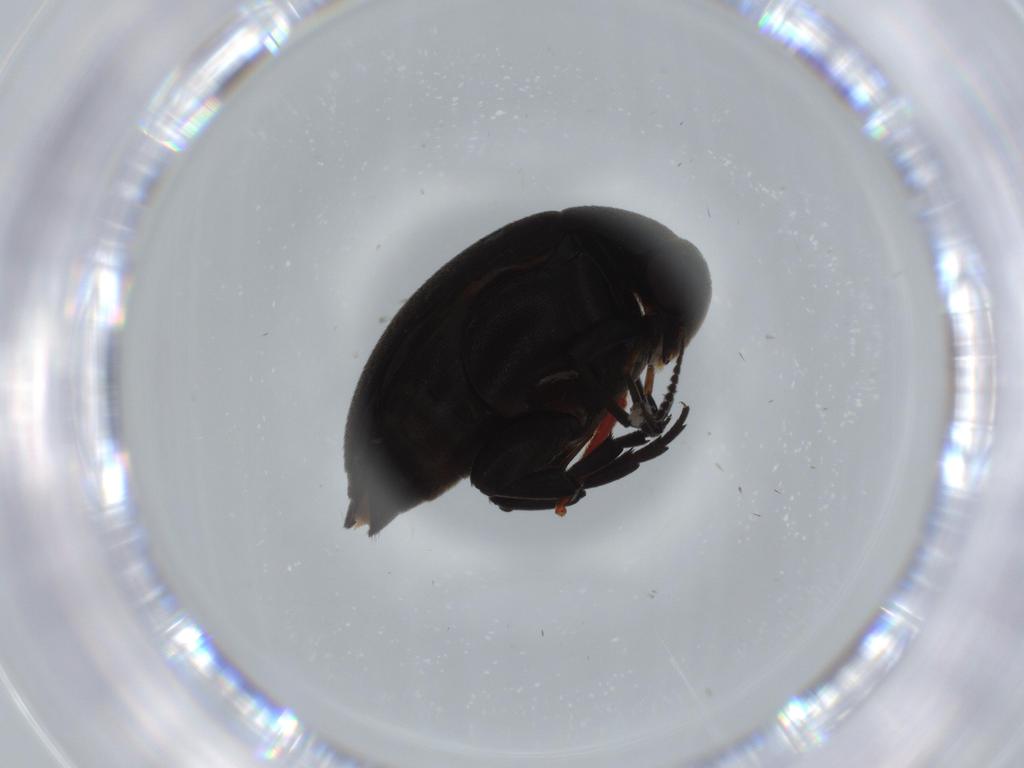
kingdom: Animalia
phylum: Arthropoda
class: Insecta
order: Coleoptera
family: Eucnemidae
